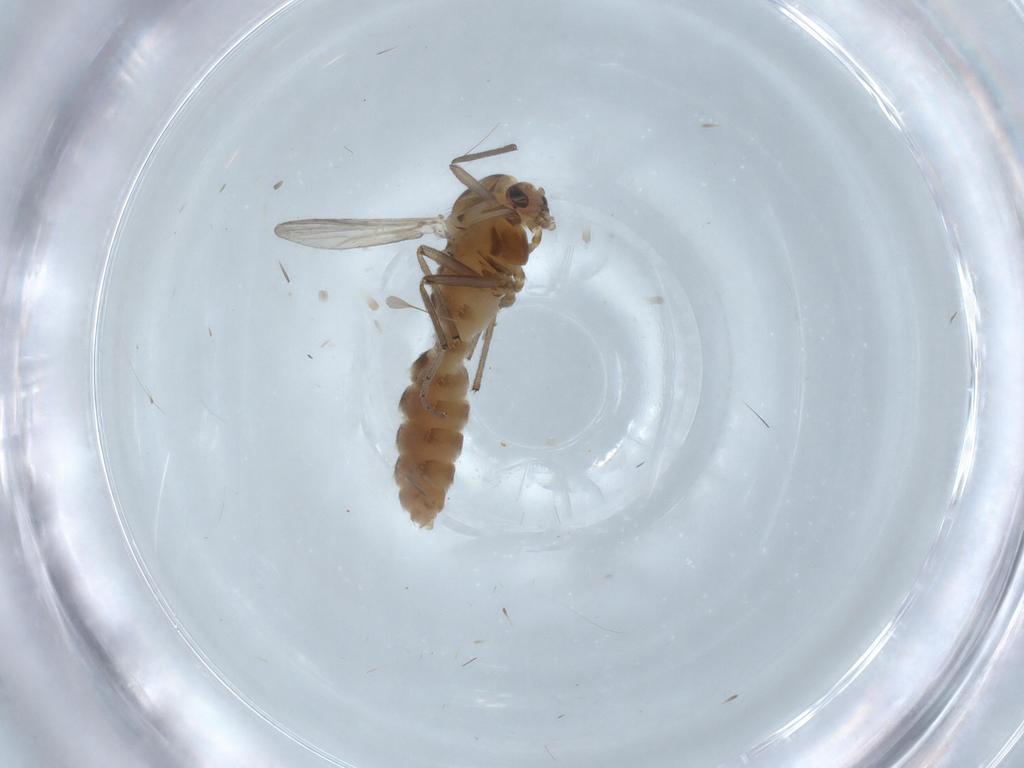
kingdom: Animalia
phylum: Arthropoda
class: Insecta
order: Diptera
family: Chironomidae
